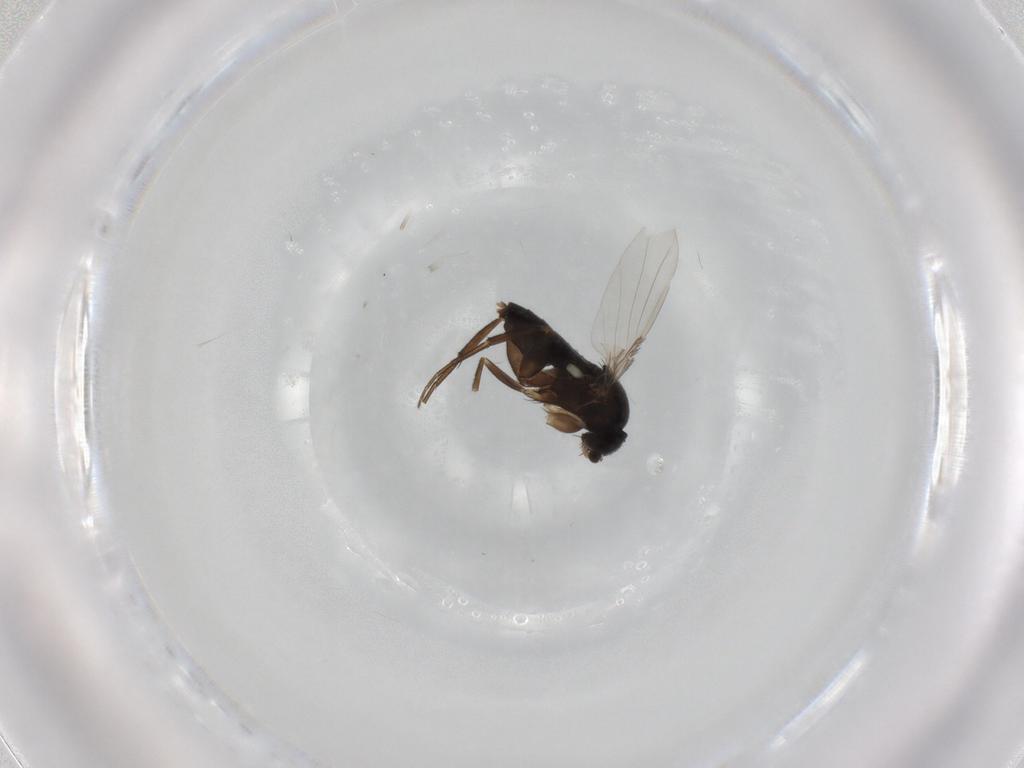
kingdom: Animalia
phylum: Arthropoda
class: Insecta
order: Diptera
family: Phoridae
